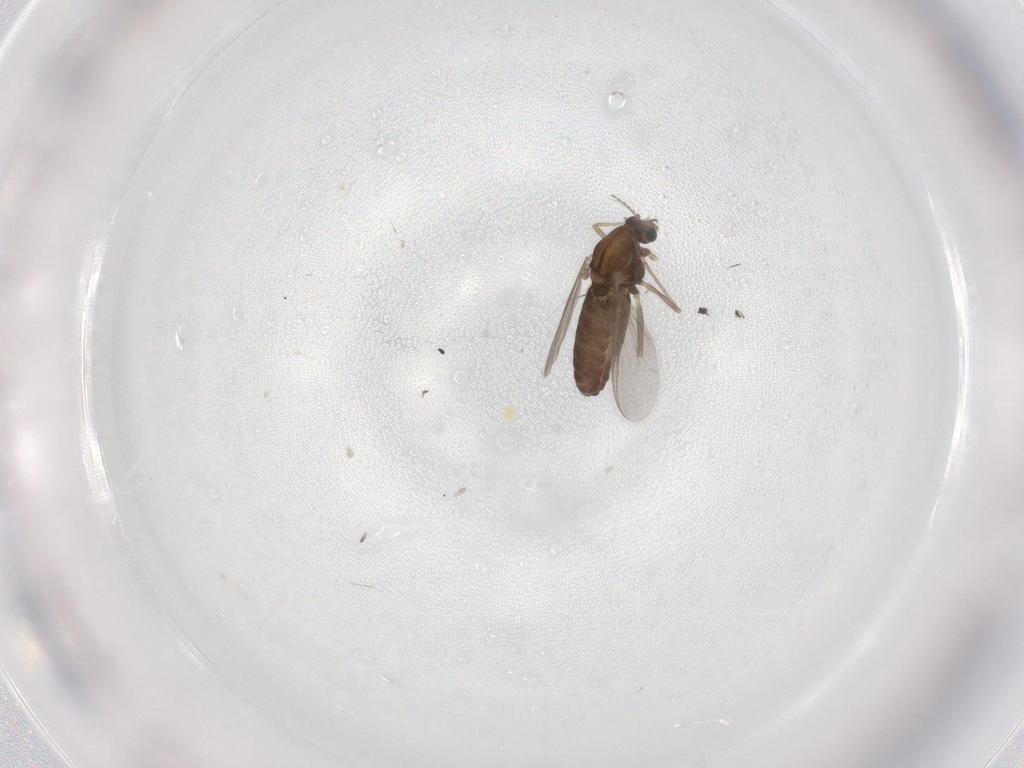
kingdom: Animalia
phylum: Arthropoda
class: Insecta
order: Diptera
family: Chironomidae
